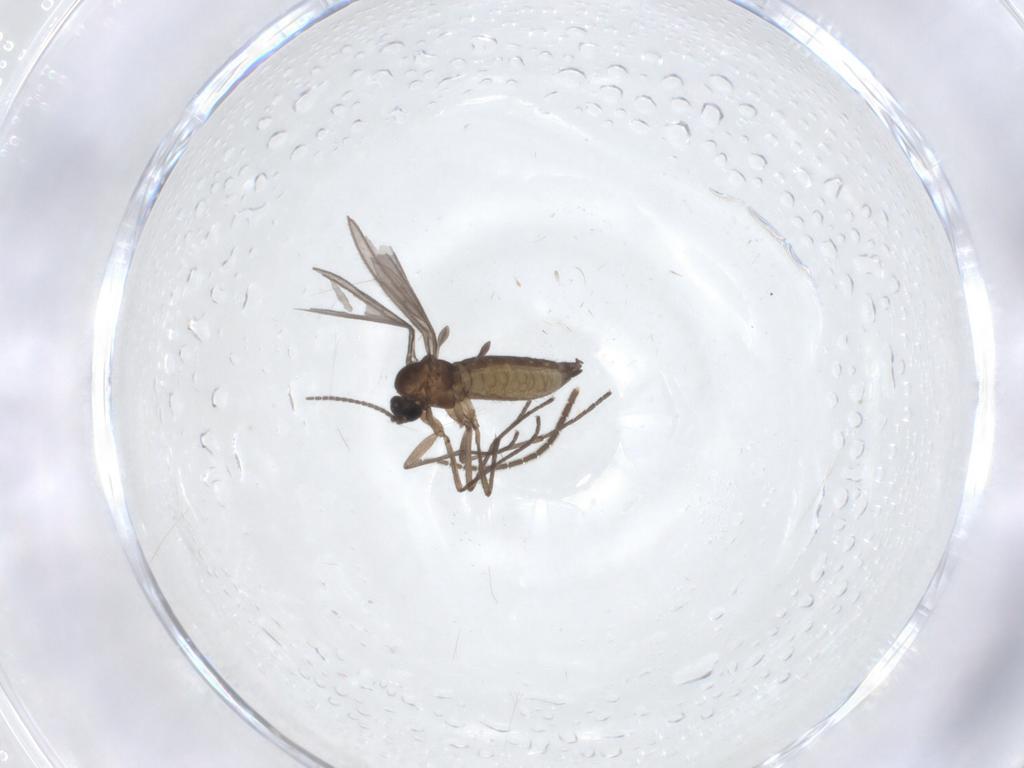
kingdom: Animalia
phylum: Arthropoda
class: Insecta
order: Diptera
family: Sciaridae
